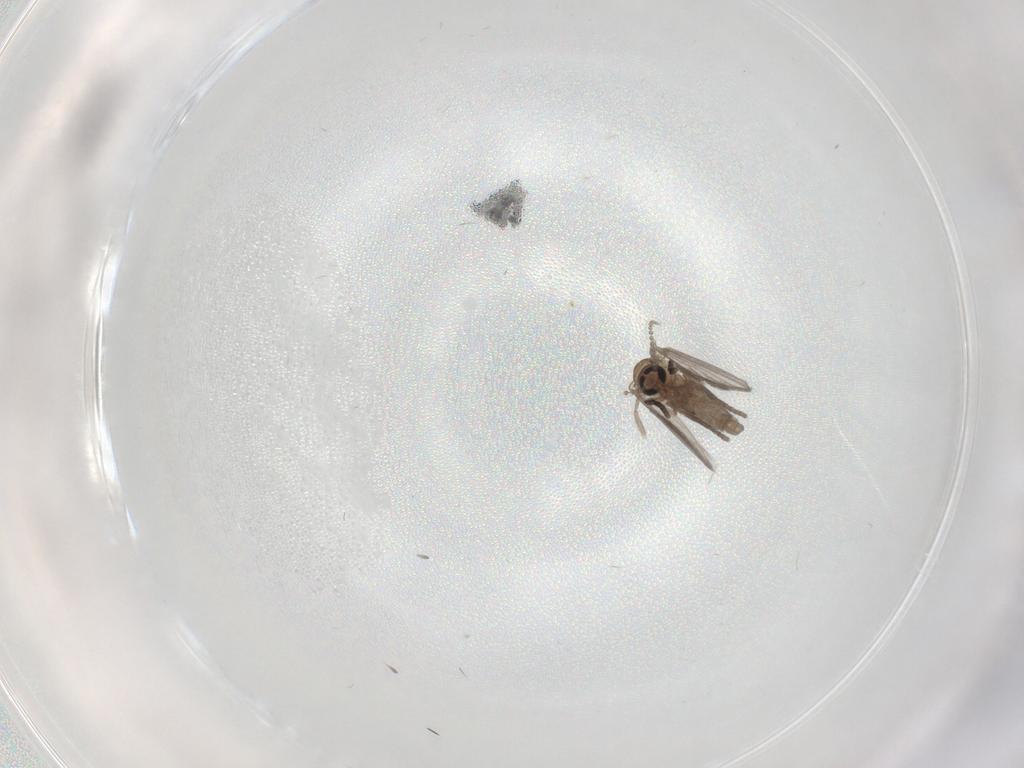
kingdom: Animalia
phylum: Arthropoda
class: Insecta
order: Diptera
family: Psychodidae
